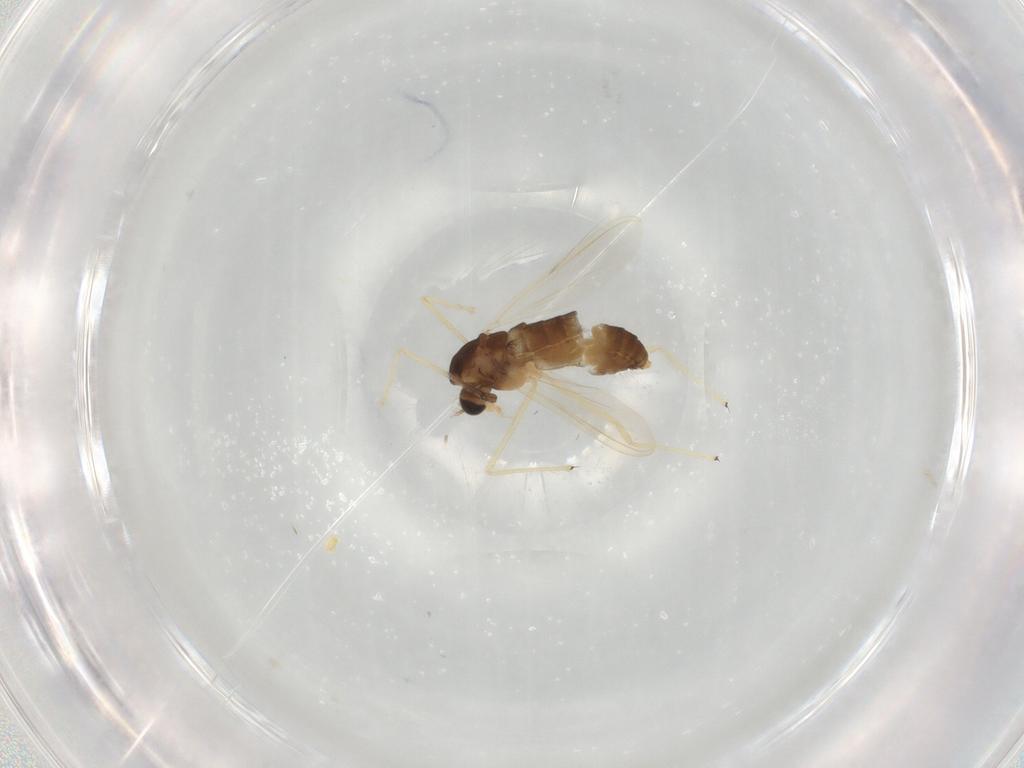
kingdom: Animalia
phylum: Arthropoda
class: Insecta
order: Diptera
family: Chironomidae
